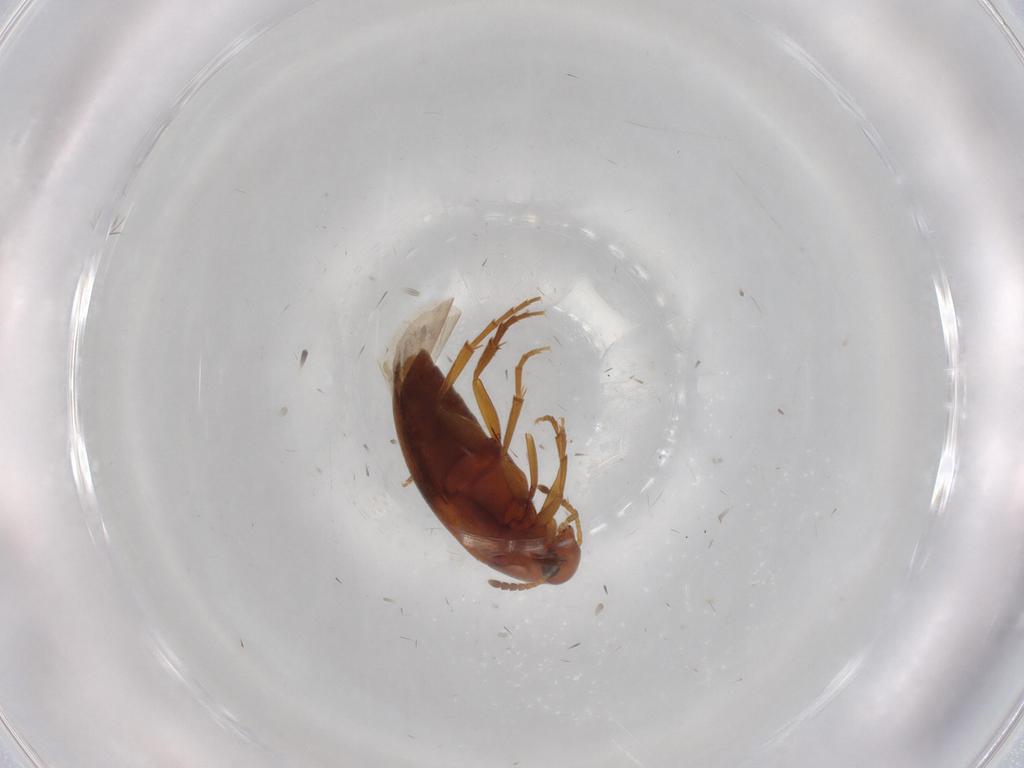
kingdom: Animalia
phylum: Arthropoda
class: Insecta
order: Coleoptera
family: Scraptiidae
